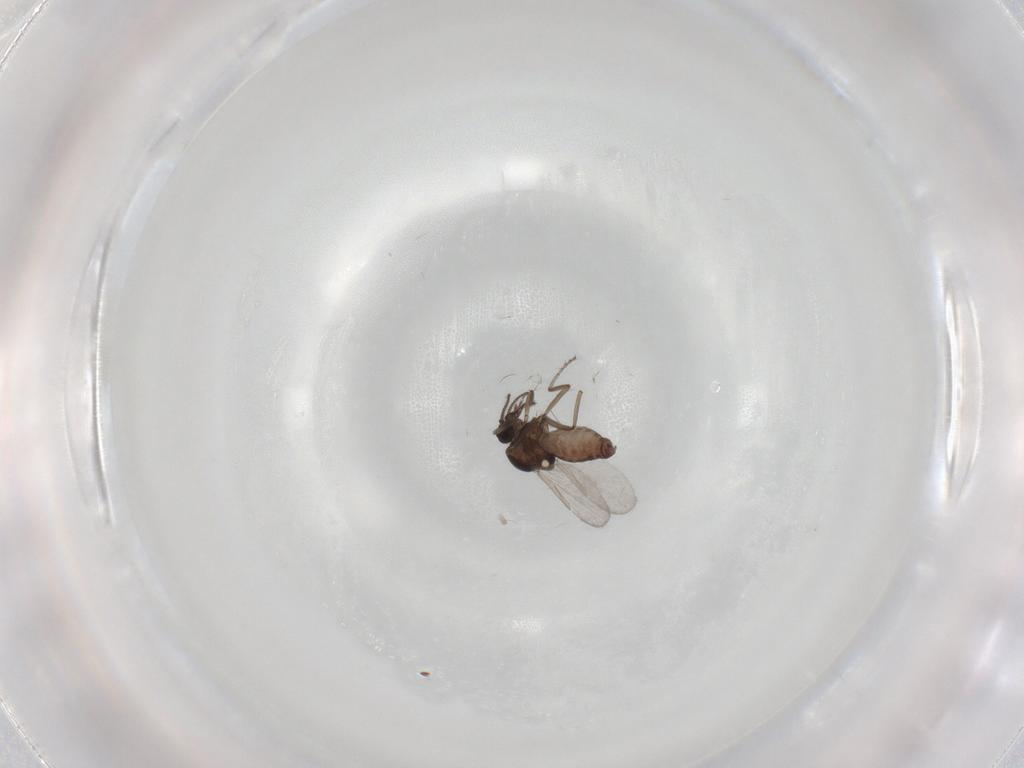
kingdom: Animalia
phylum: Arthropoda
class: Insecta
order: Diptera
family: Ceratopogonidae
